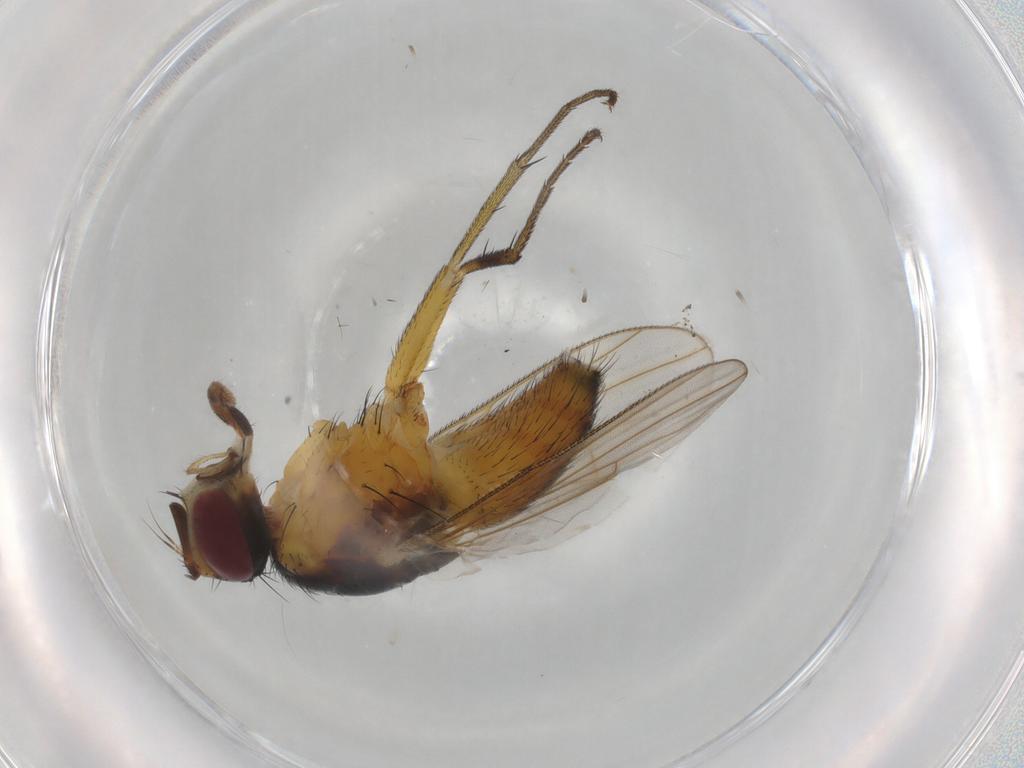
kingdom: Animalia
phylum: Arthropoda
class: Insecta
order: Diptera
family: Muscidae
